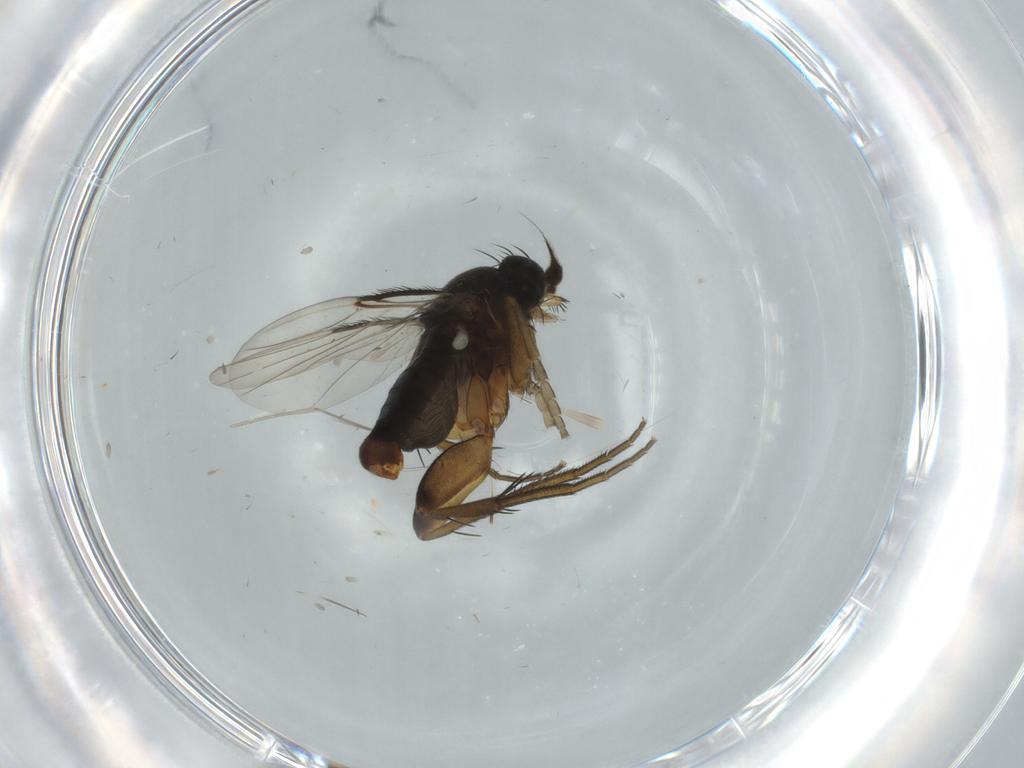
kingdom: Animalia
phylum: Arthropoda
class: Insecta
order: Diptera
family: Phoridae
